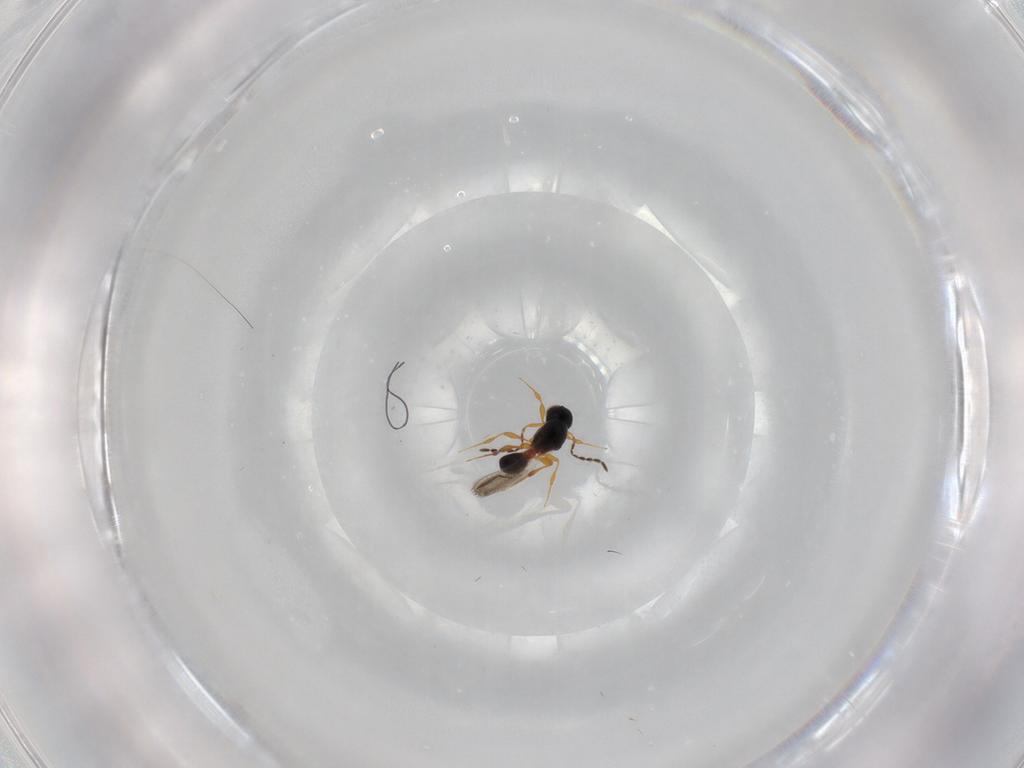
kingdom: Animalia
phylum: Arthropoda
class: Insecta
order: Hymenoptera
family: Platygastridae
